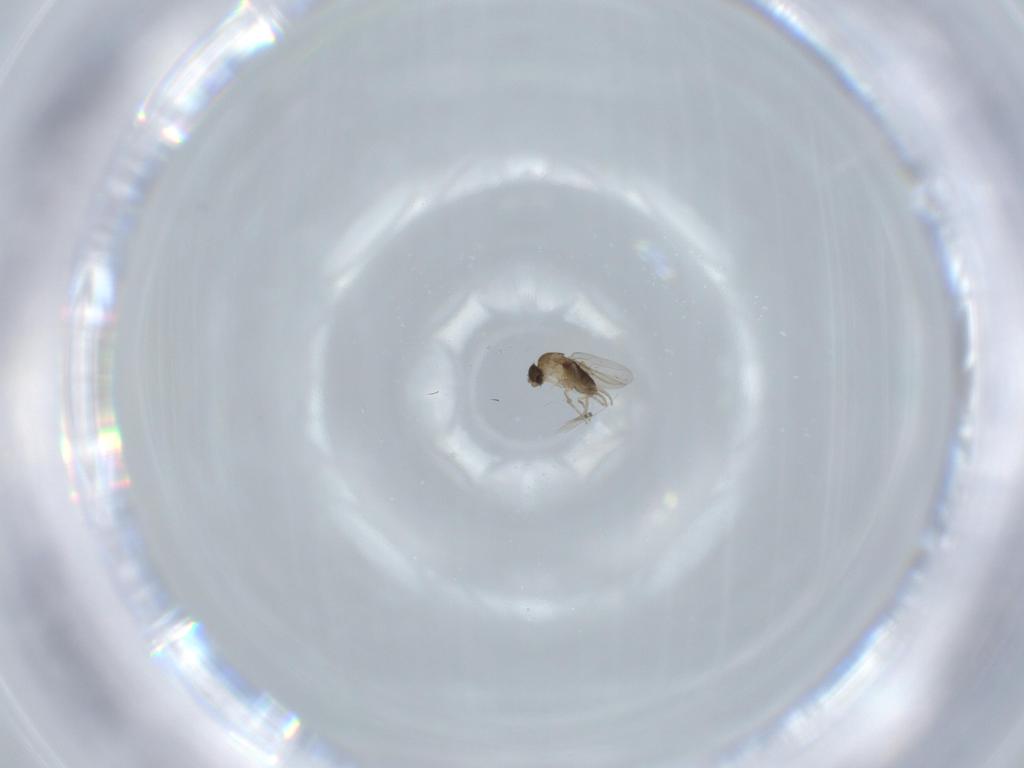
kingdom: Animalia
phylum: Arthropoda
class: Insecta
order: Diptera
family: Phoridae
